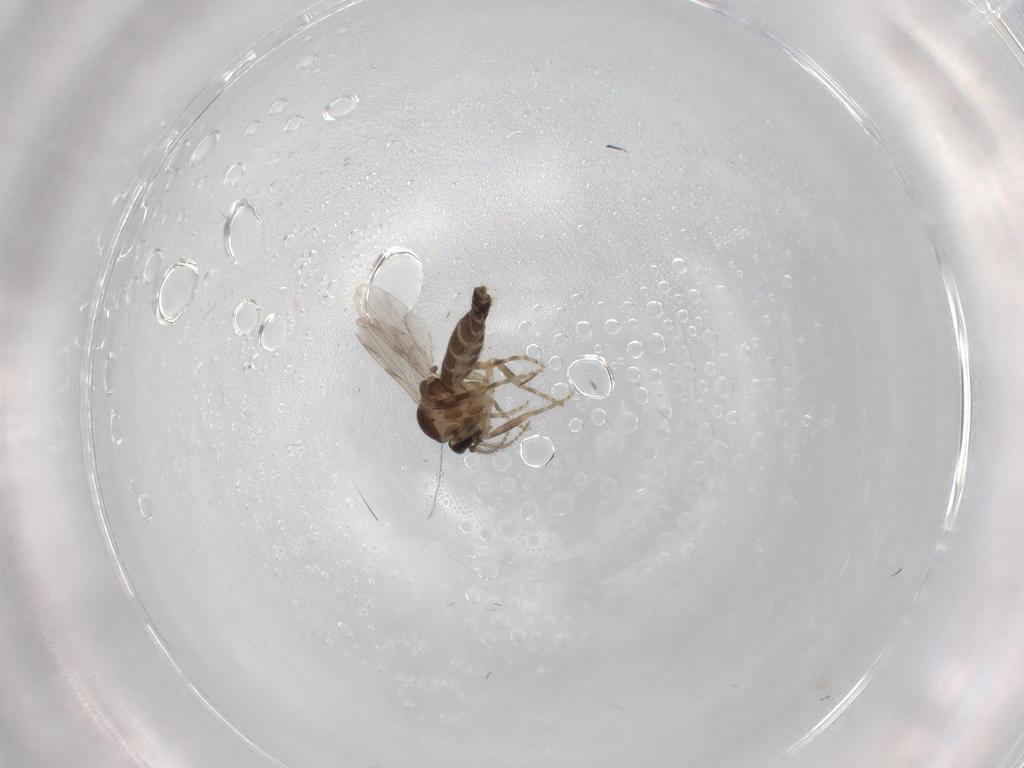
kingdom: Animalia
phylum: Arthropoda
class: Insecta
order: Diptera
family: Ceratopogonidae
